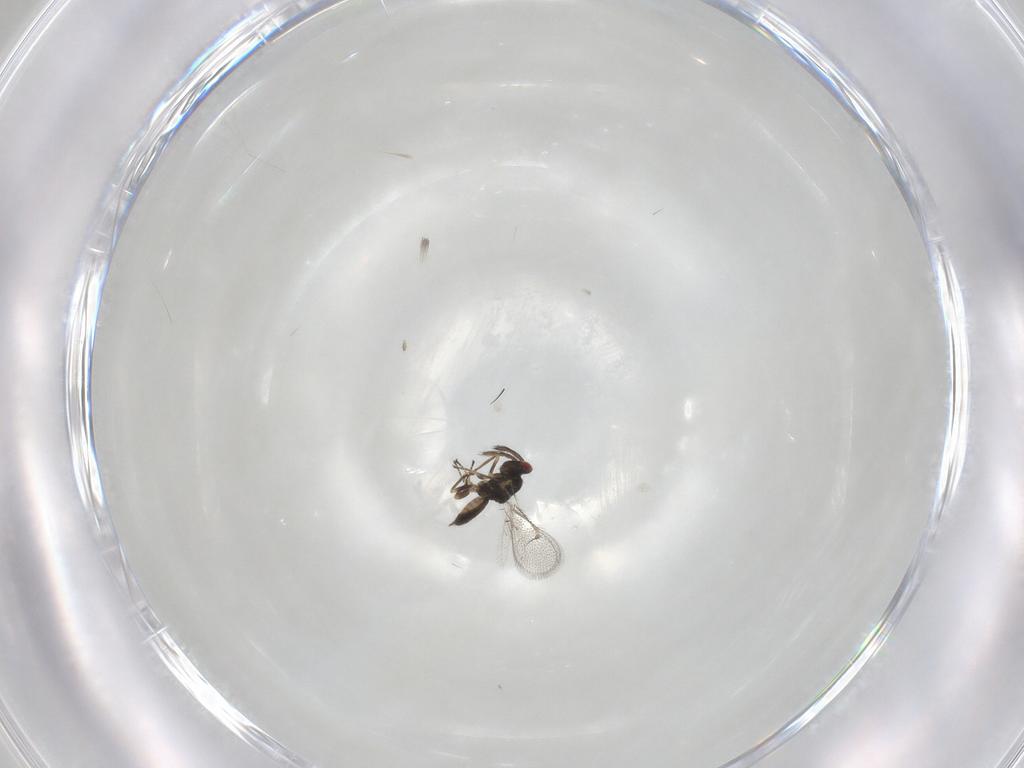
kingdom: Animalia
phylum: Arthropoda
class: Insecta
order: Hymenoptera
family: Eulophidae
